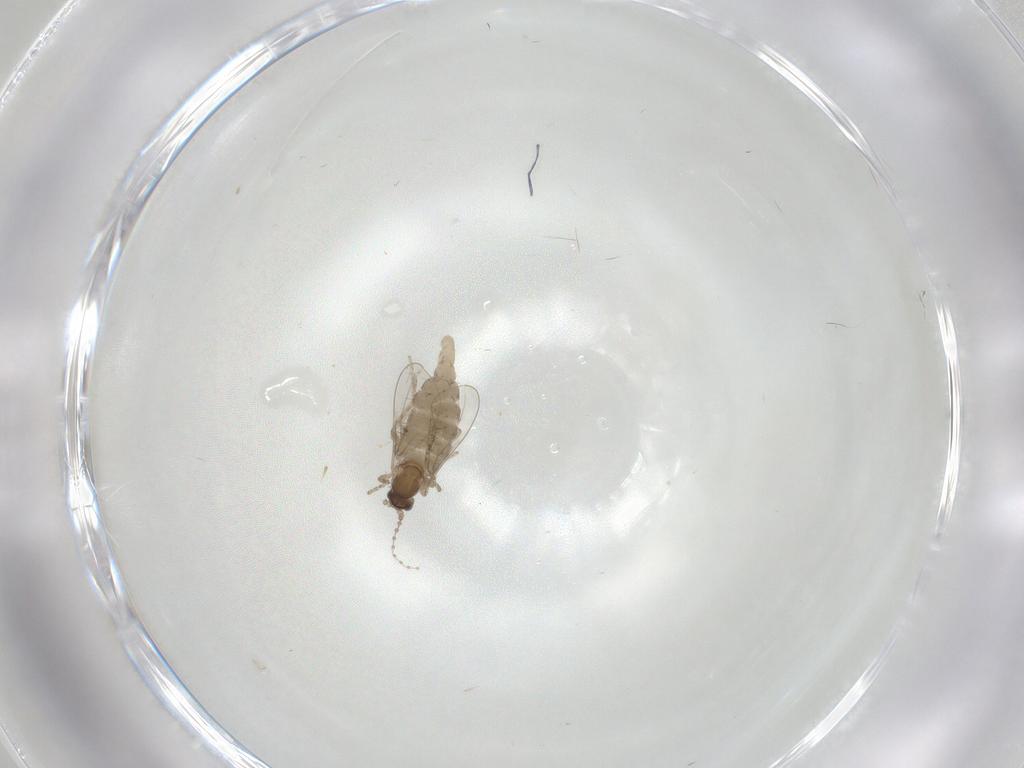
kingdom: Animalia
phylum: Arthropoda
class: Insecta
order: Diptera
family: Cecidomyiidae
